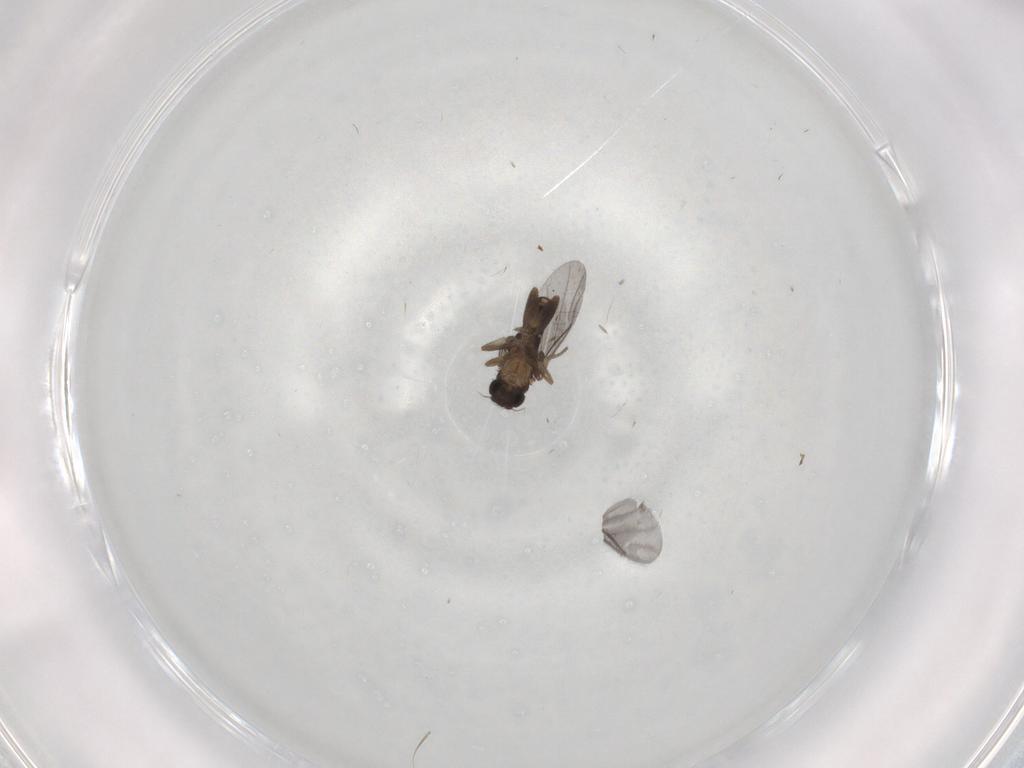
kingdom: Animalia
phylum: Arthropoda
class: Insecta
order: Diptera
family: Phoridae
